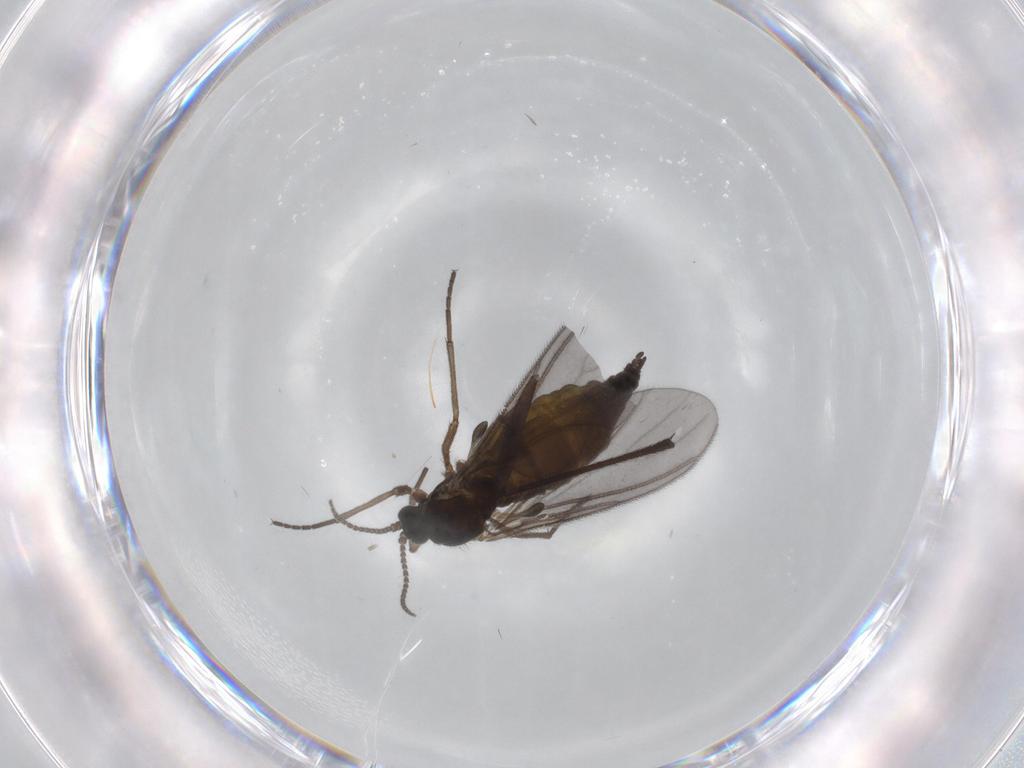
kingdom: Animalia
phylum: Arthropoda
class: Insecta
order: Diptera
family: Sciaridae
